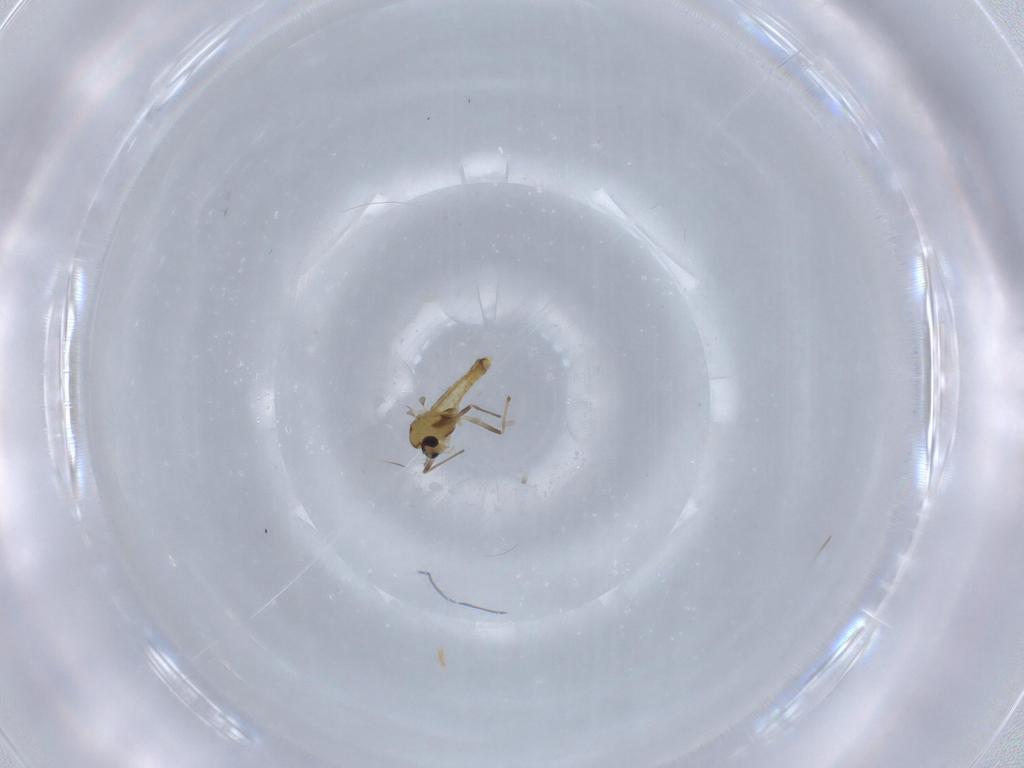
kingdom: Animalia
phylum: Arthropoda
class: Insecta
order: Diptera
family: Chironomidae
